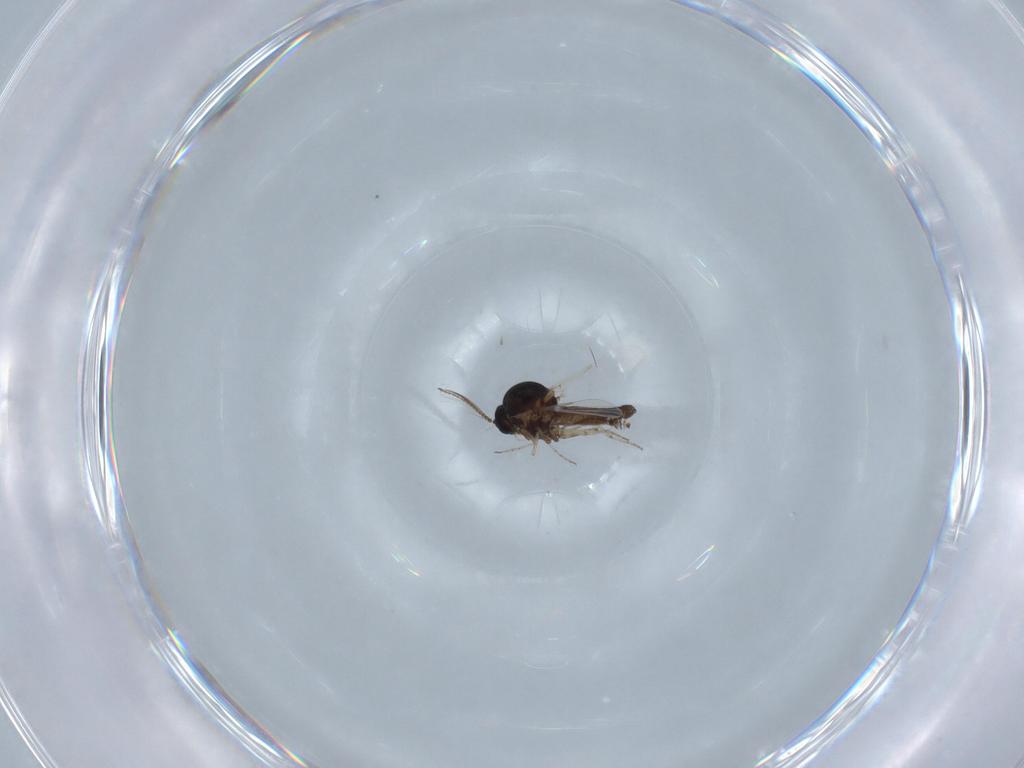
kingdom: Animalia
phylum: Arthropoda
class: Insecta
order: Diptera
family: Ceratopogonidae
